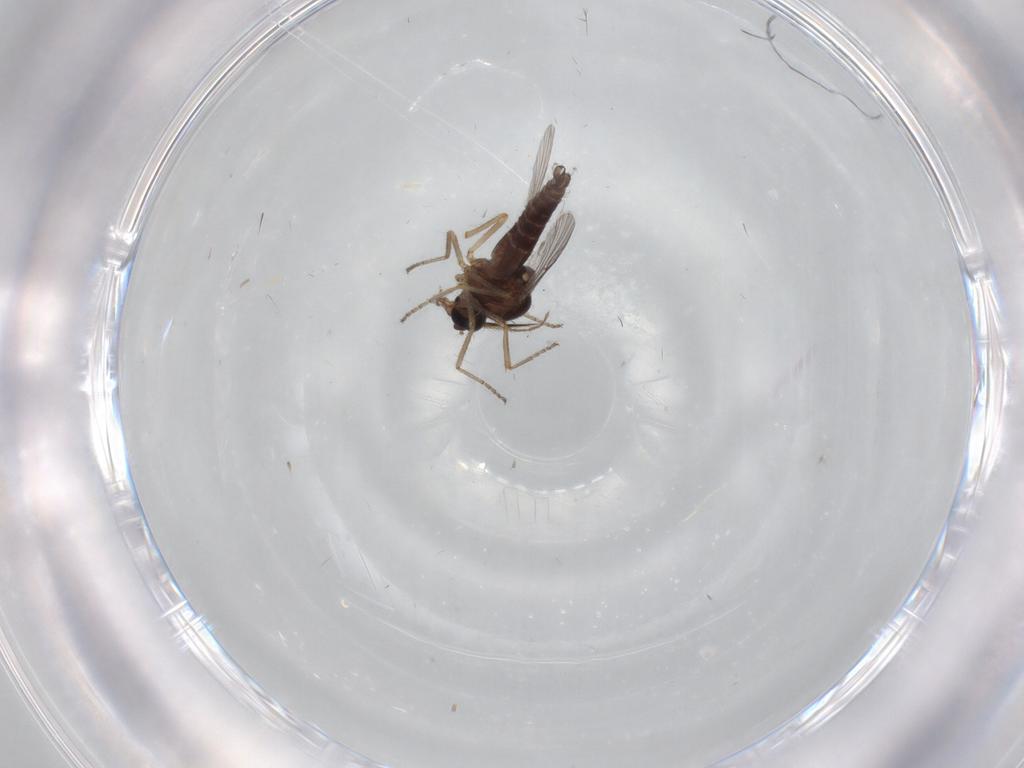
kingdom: Animalia
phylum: Arthropoda
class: Insecta
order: Diptera
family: Ceratopogonidae
